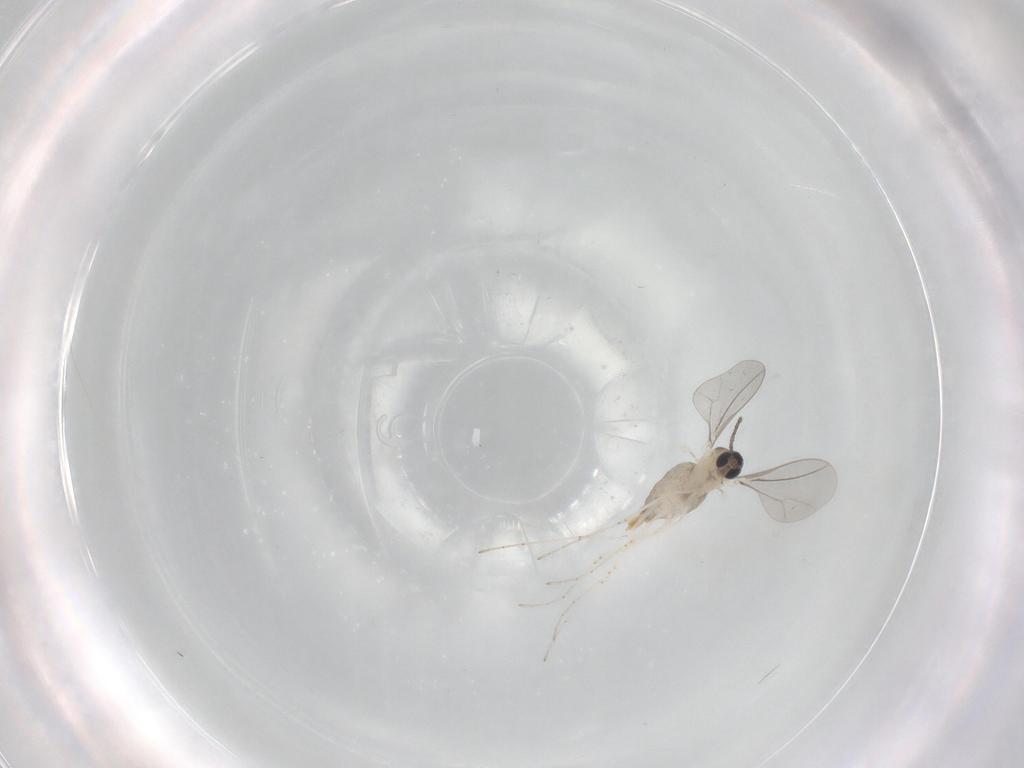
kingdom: Animalia
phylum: Arthropoda
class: Insecta
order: Diptera
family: Cecidomyiidae
